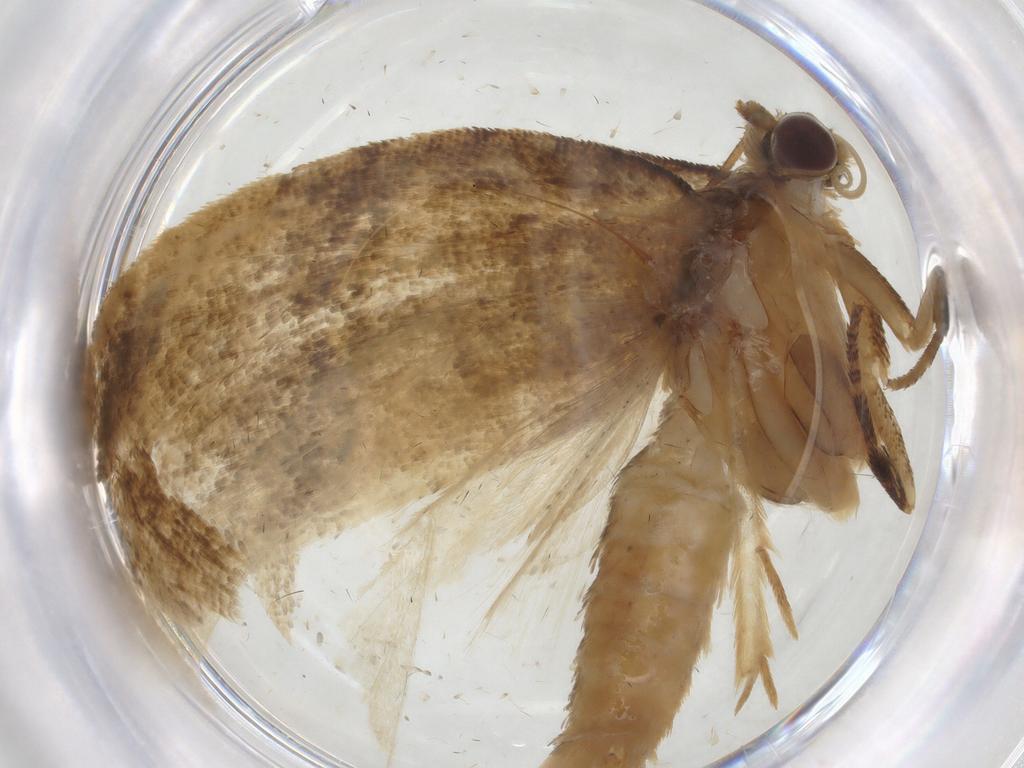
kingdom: Animalia
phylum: Arthropoda
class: Insecta
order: Lepidoptera
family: Tortricidae
